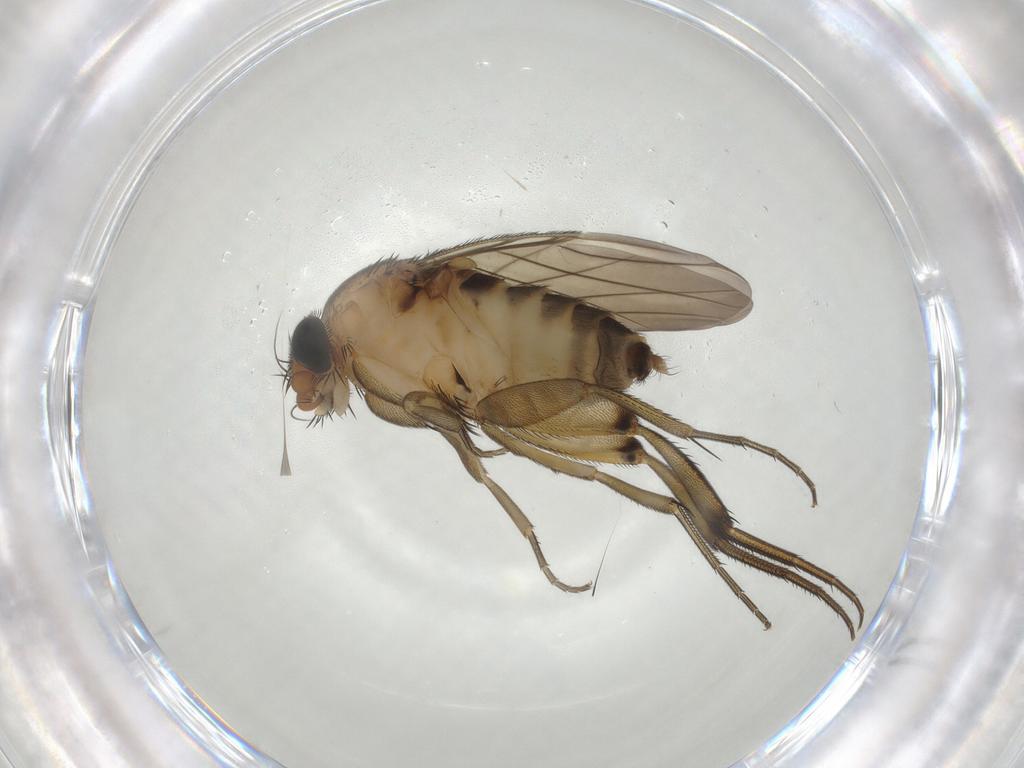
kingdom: Animalia
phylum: Arthropoda
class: Insecta
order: Diptera
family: Phoridae
